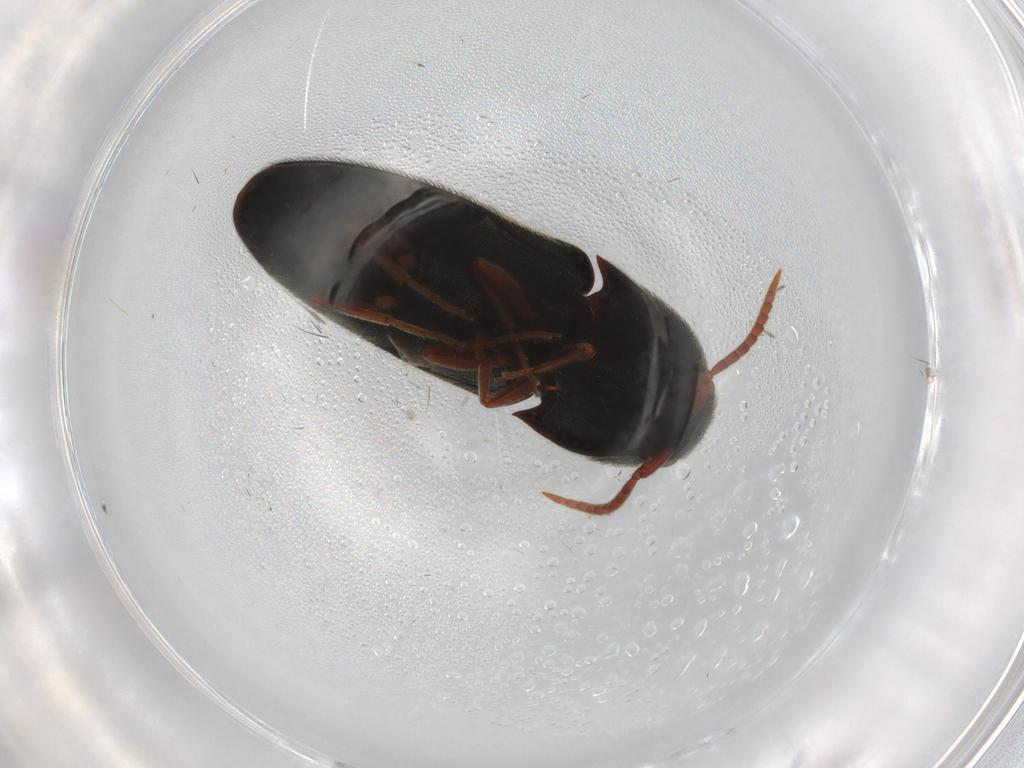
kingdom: Animalia
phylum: Arthropoda
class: Insecta
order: Coleoptera
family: Eucnemidae
